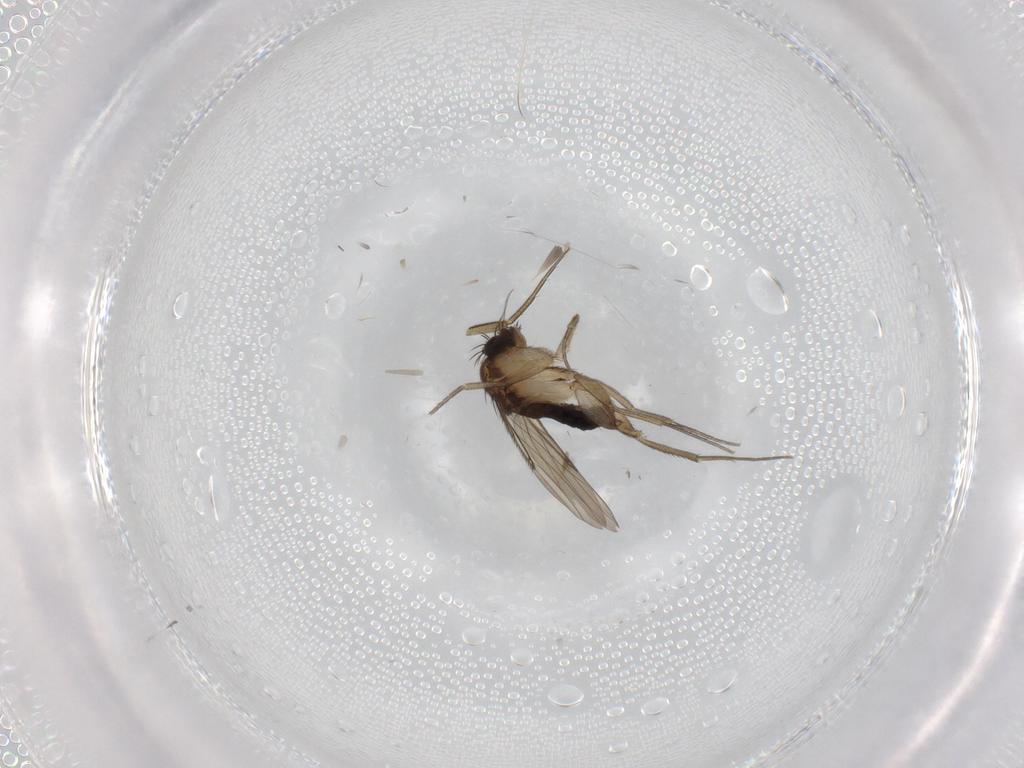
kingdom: Animalia
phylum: Arthropoda
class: Insecta
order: Diptera
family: Phoridae
